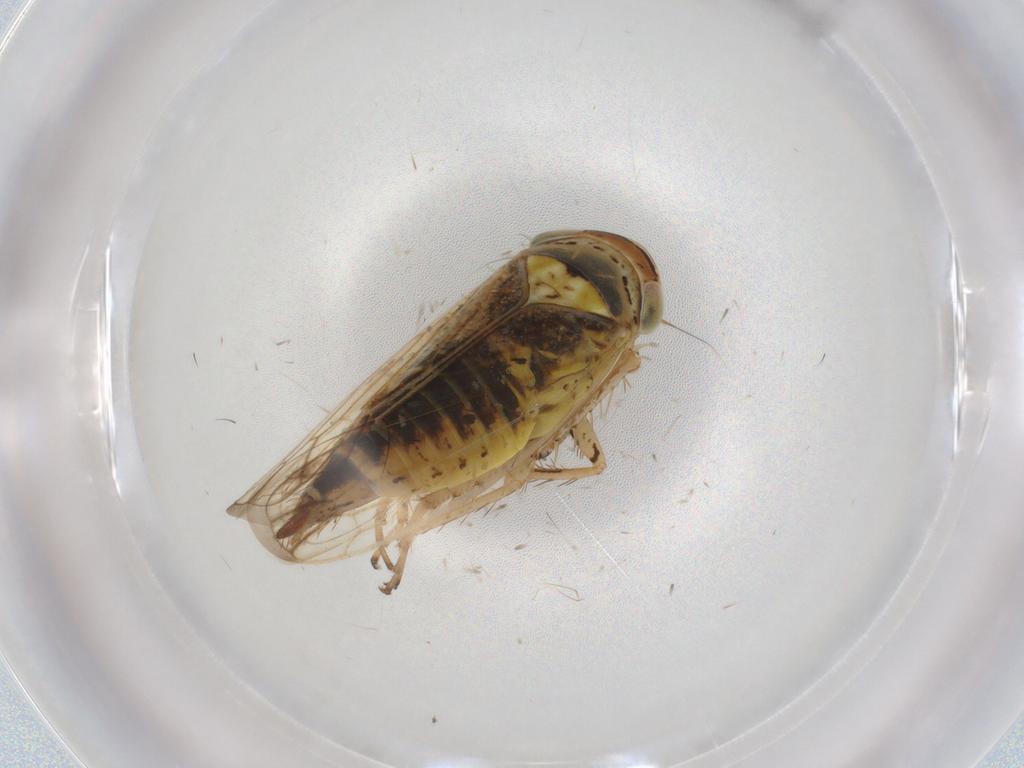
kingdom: Animalia
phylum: Arthropoda
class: Insecta
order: Hemiptera
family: Cicadellidae
